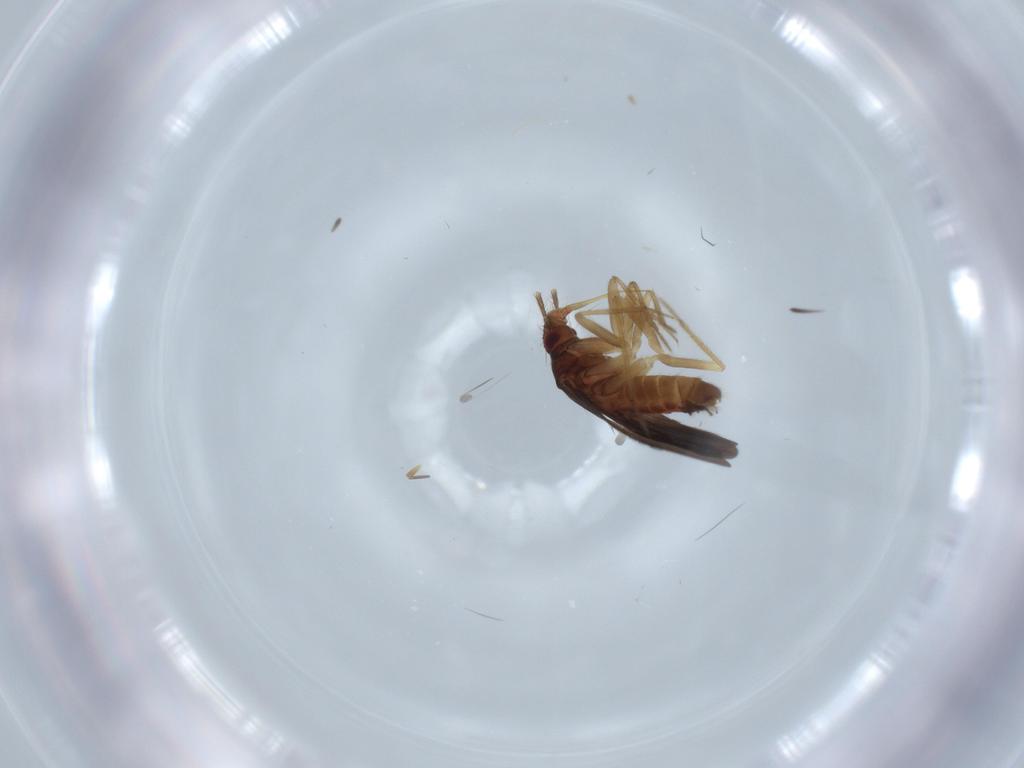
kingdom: Animalia
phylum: Arthropoda
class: Insecta
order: Hemiptera
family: Ceratocombidae
